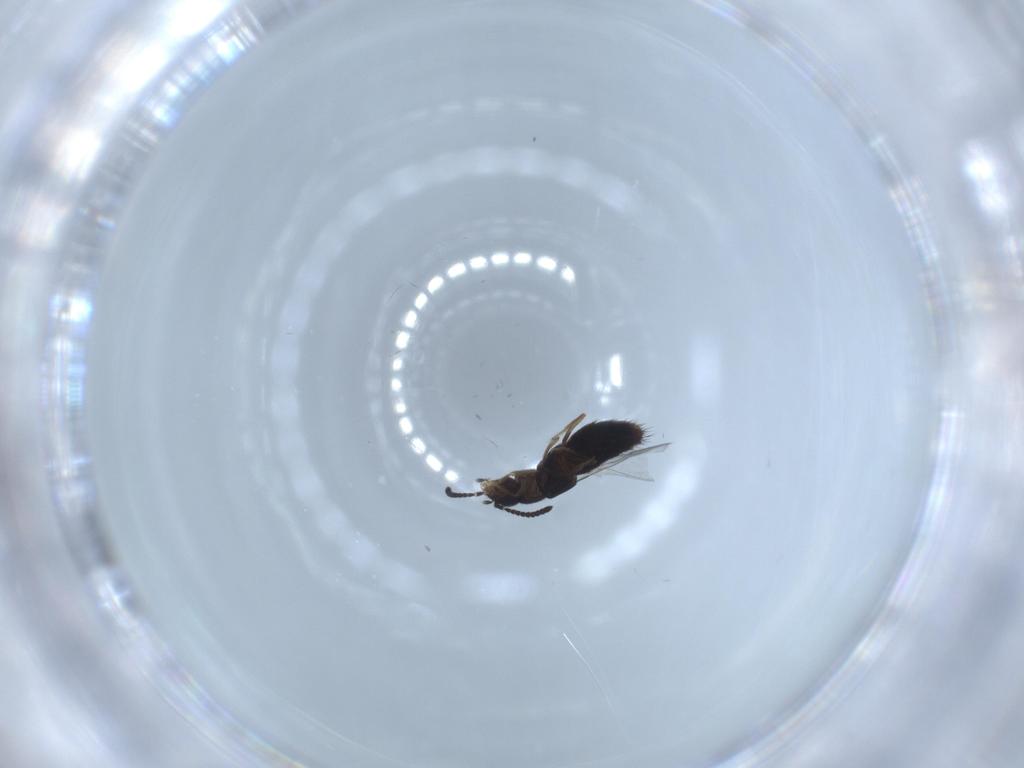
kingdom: Animalia
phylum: Arthropoda
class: Insecta
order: Coleoptera
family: Staphylinidae
